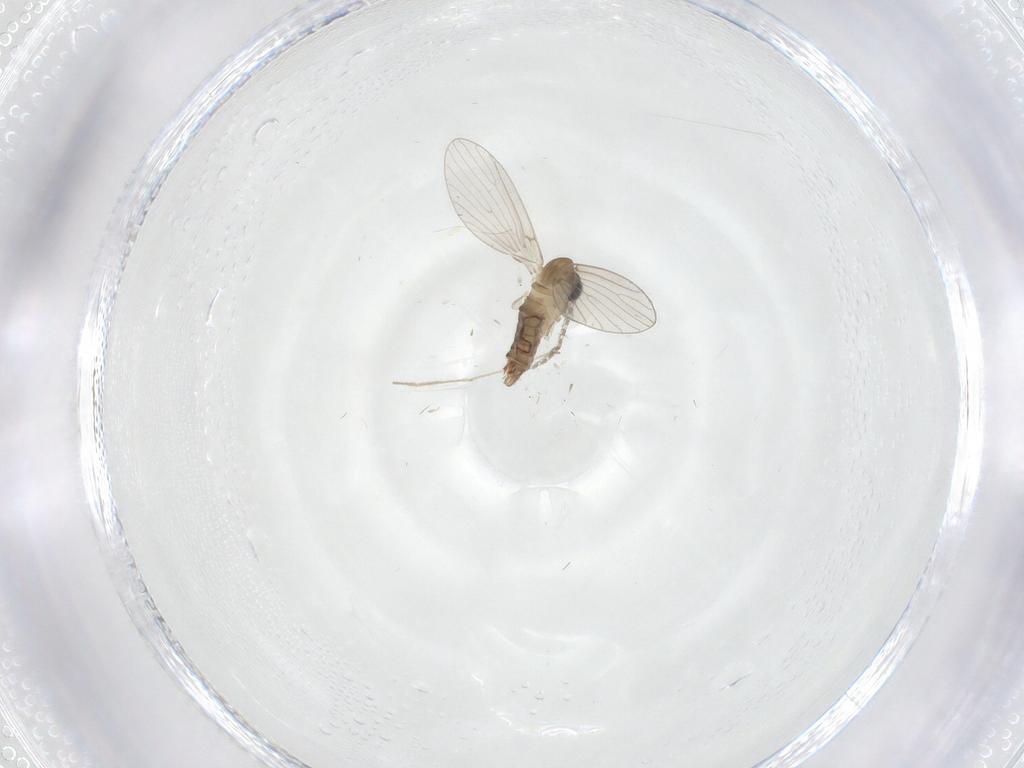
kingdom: Animalia
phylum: Arthropoda
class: Insecta
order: Diptera
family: Chironomidae
